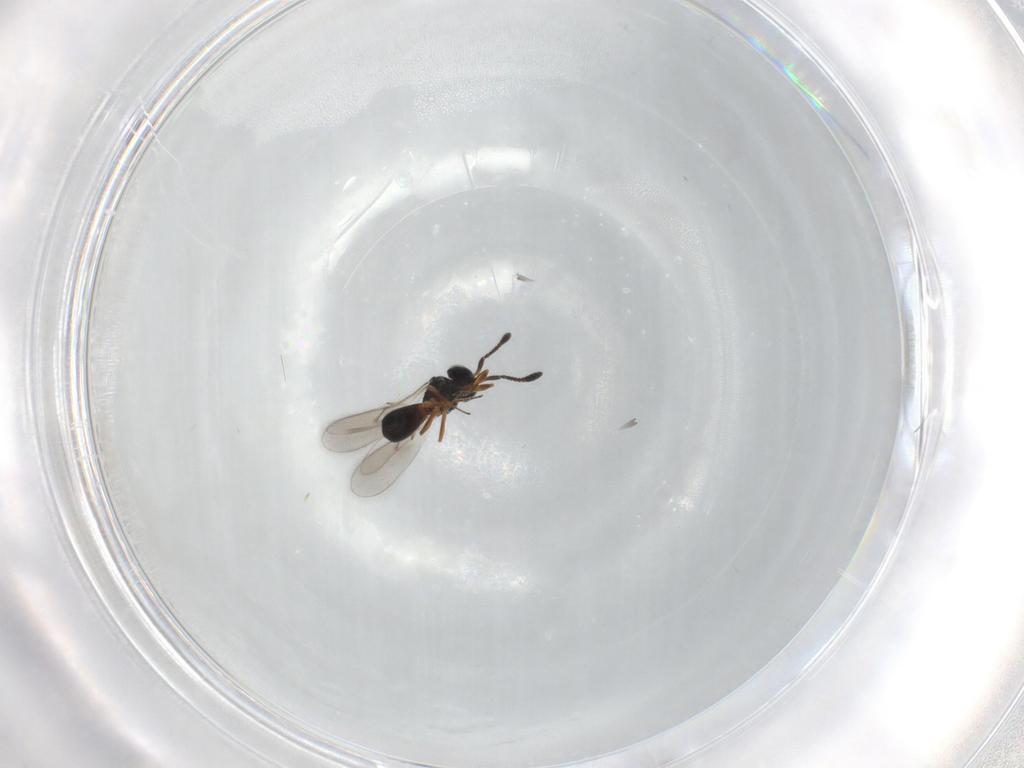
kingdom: Animalia
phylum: Arthropoda
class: Insecta
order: Hymenoptera
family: Scelionidae
